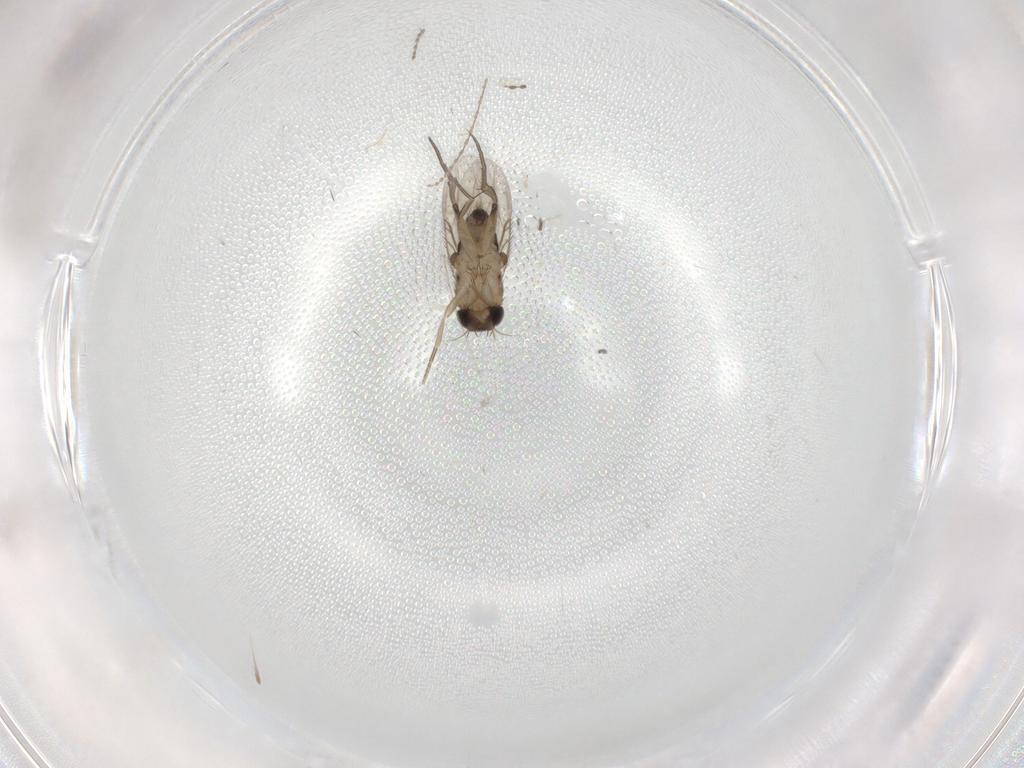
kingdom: Animalia
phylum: Arthropoda
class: Insecta
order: Diptera
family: Phoridae
